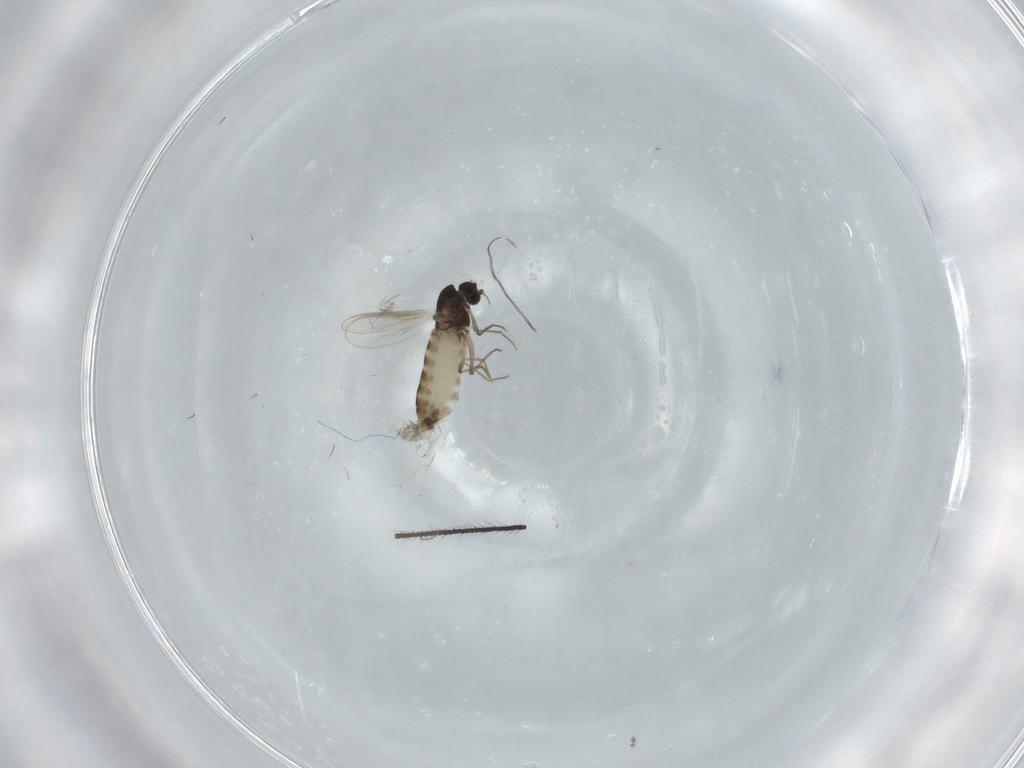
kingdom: Animalia
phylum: Arthropoda
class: Insecta
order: Diptera
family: Chironomidae
